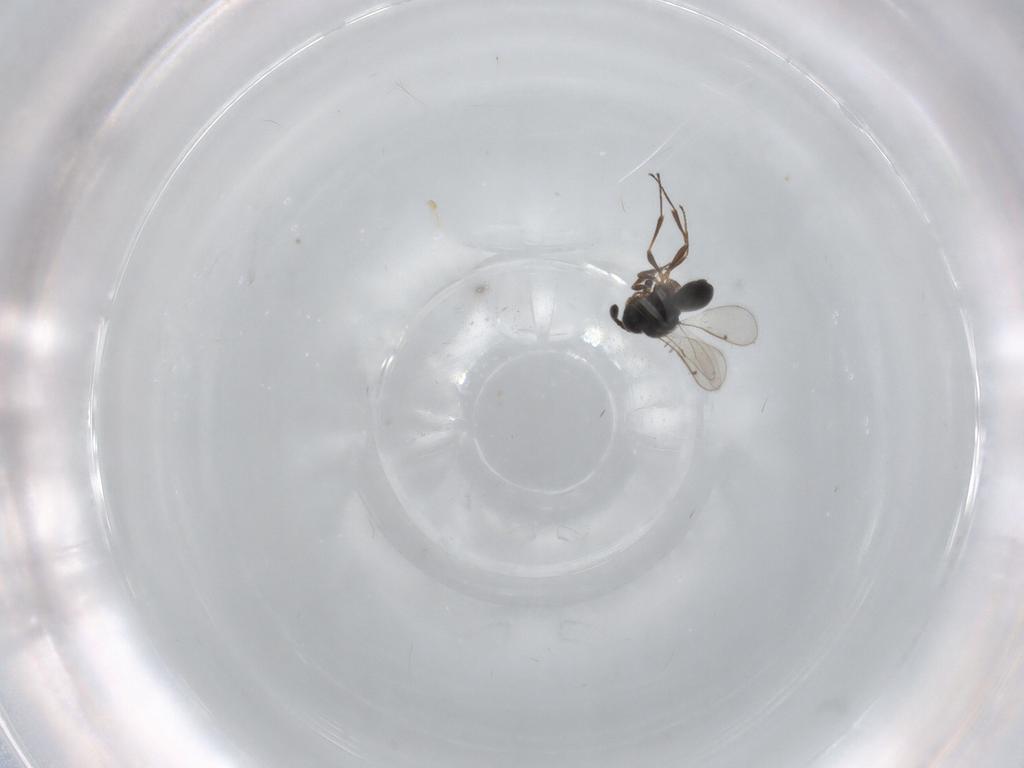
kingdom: Animalia
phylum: Arthropoda
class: Insecta
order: Hymenoptera
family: Scelionidae
